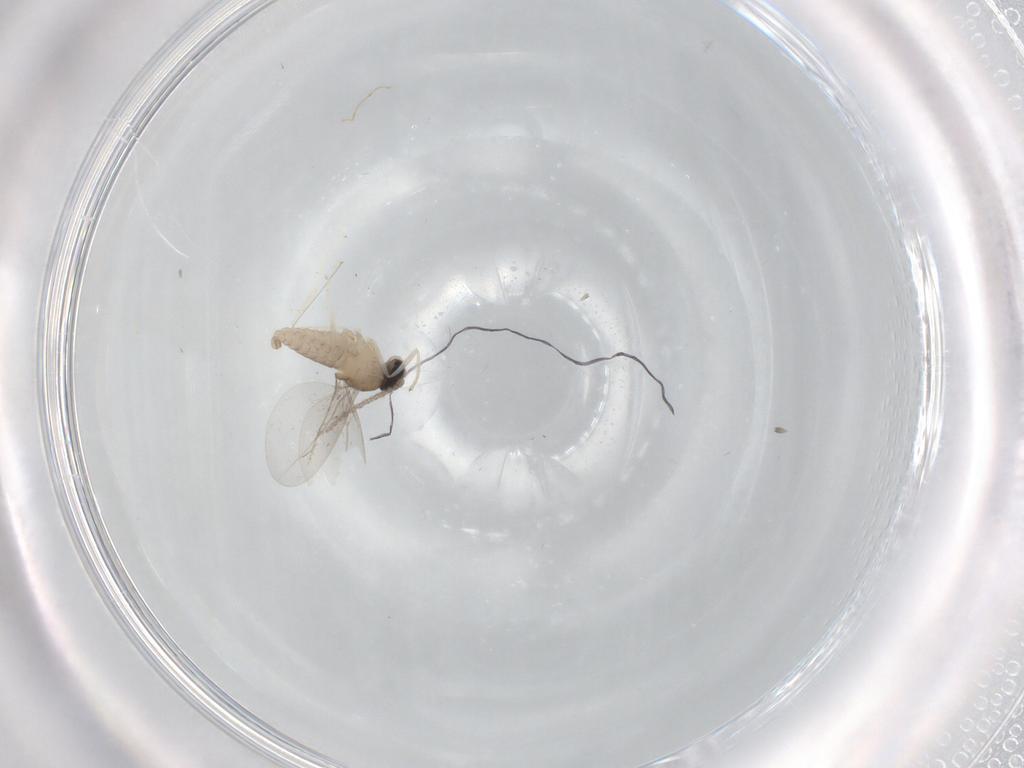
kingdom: Animalia
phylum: Arthropoda
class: Insecta
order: Diptera
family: Cecidomyiidae
